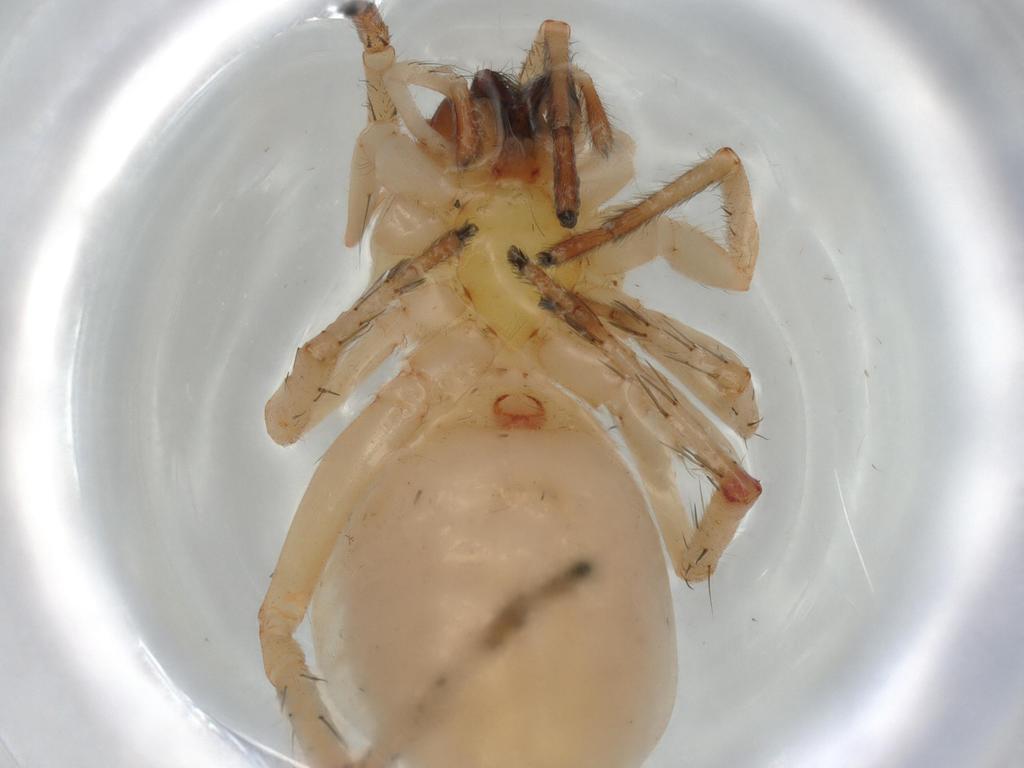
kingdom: Animalia
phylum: Arthropoda
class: Arachnida
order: Araneae
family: Anyphaenidae
